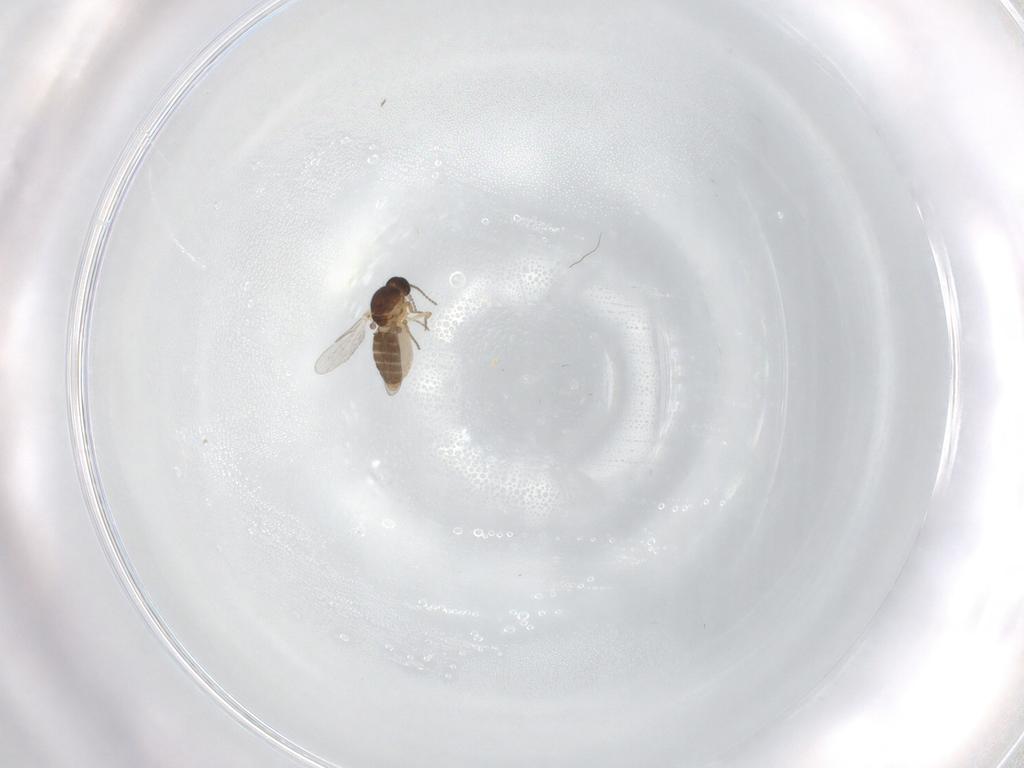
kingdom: Animalia
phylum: Arthropoda
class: Insecta
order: Diptera
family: Ceratopogonidae
